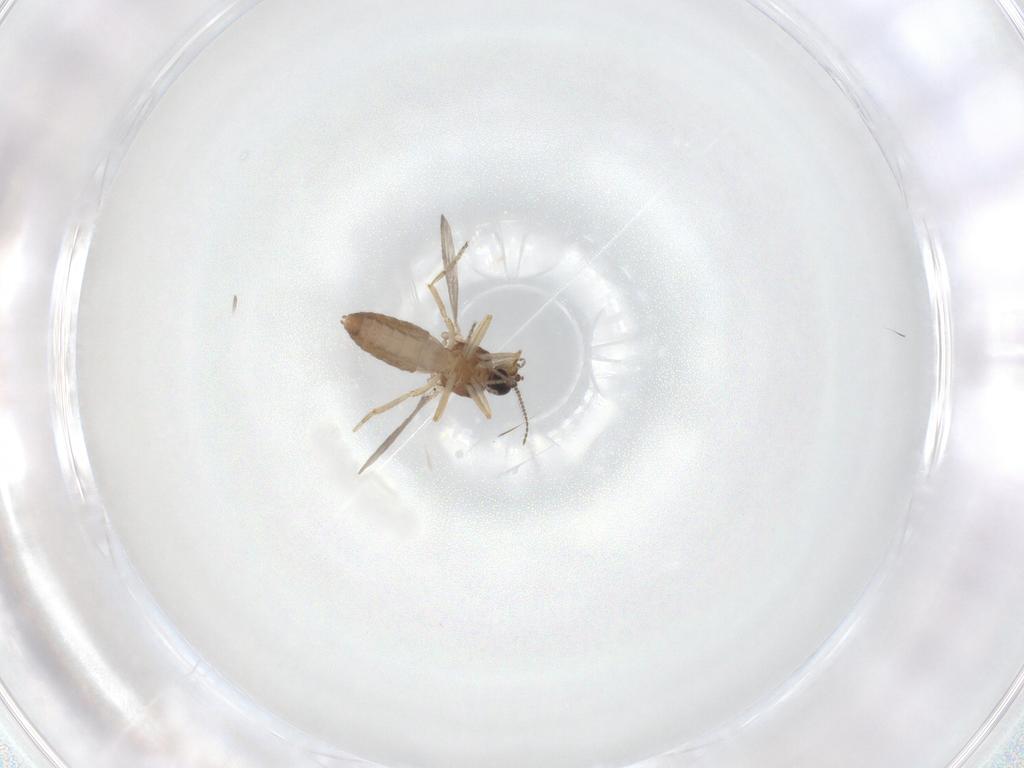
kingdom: Animalia
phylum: Arthropoda
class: Insecta
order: Diptera
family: Ceratopogonidae
